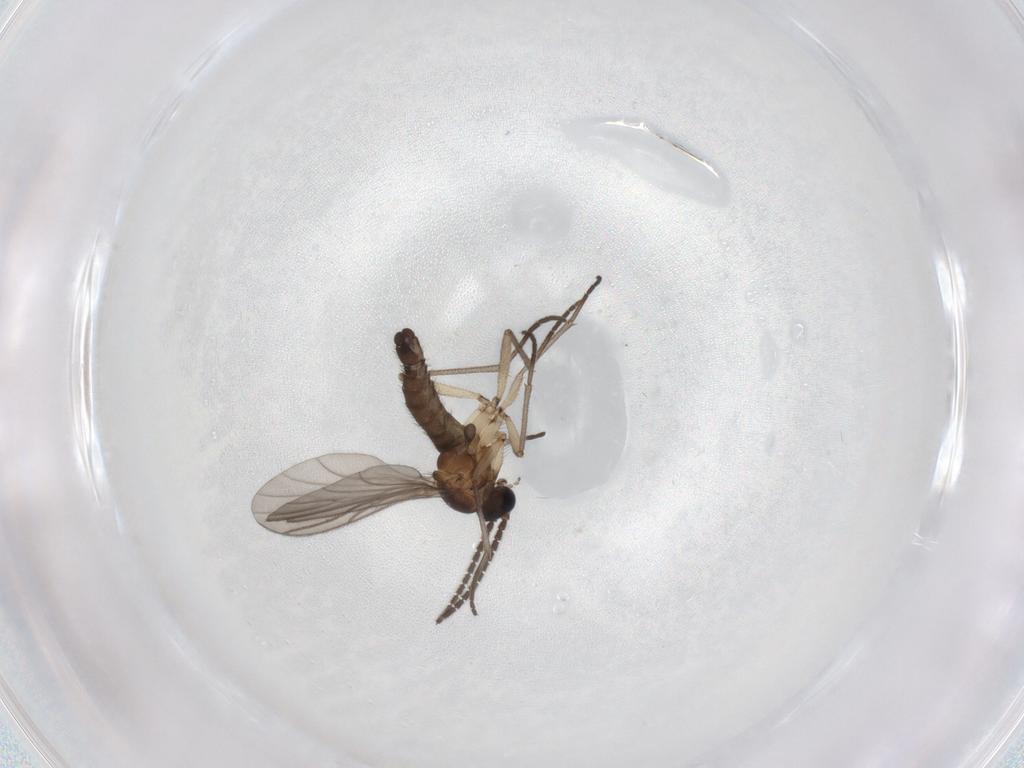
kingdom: Animalia
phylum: Arthropoda
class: Insecta
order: Diptera
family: Sciaridae
